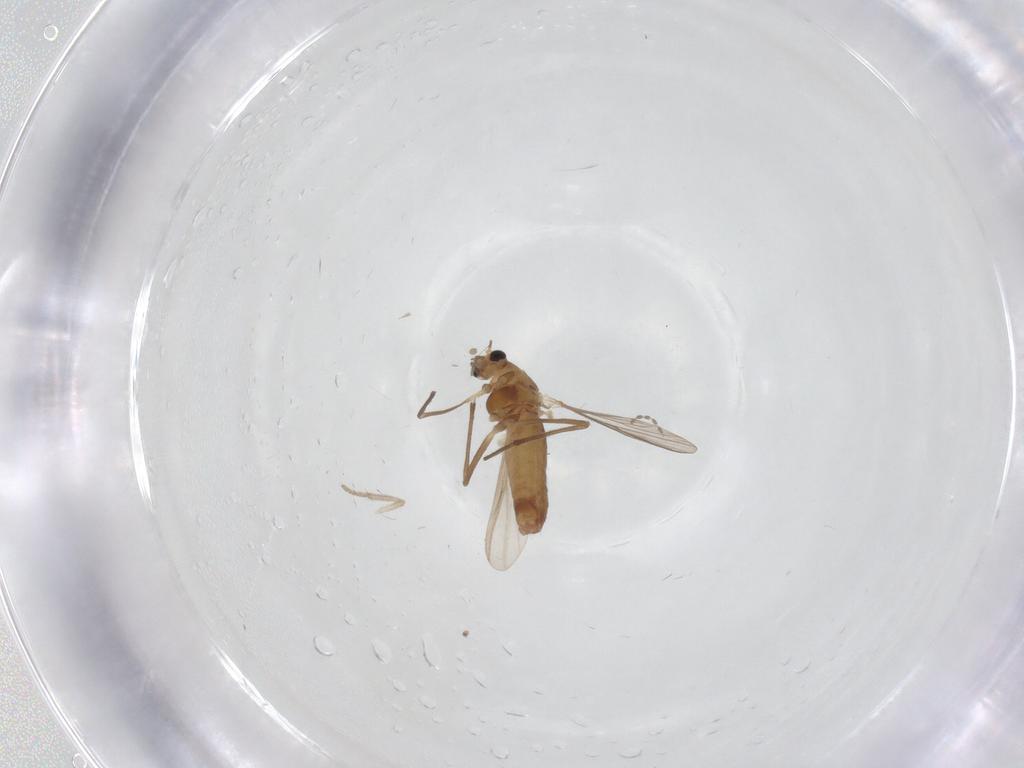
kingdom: Animalia
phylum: Arthropoda
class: Insecta
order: Diptera
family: Chironomidae
